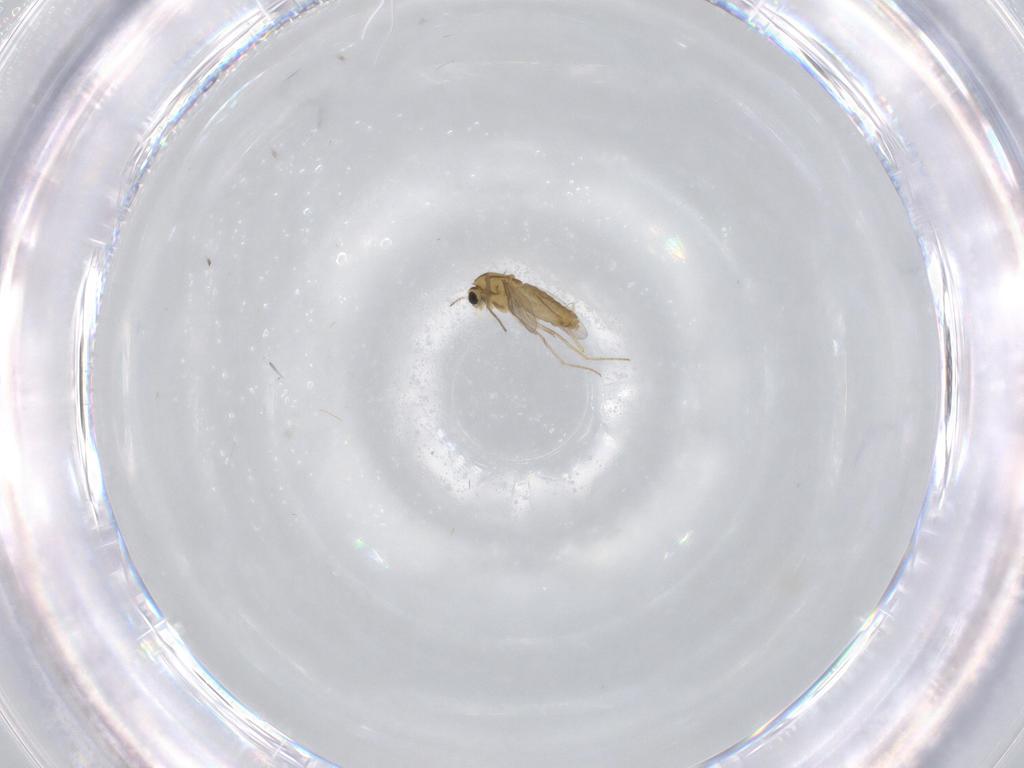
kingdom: Animalia
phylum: Arthropoda
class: Insecta
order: Diptera
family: Chironomidae
